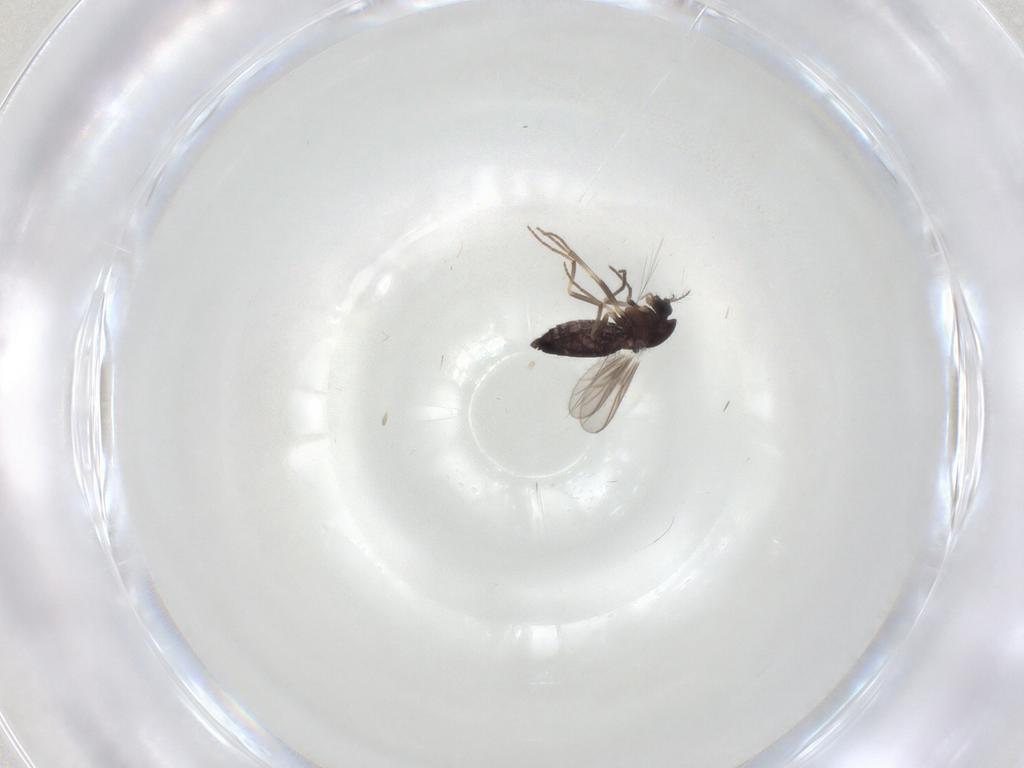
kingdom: Animalia
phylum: Arthropoda
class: Insecta
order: Diptera
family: Chironomidae
